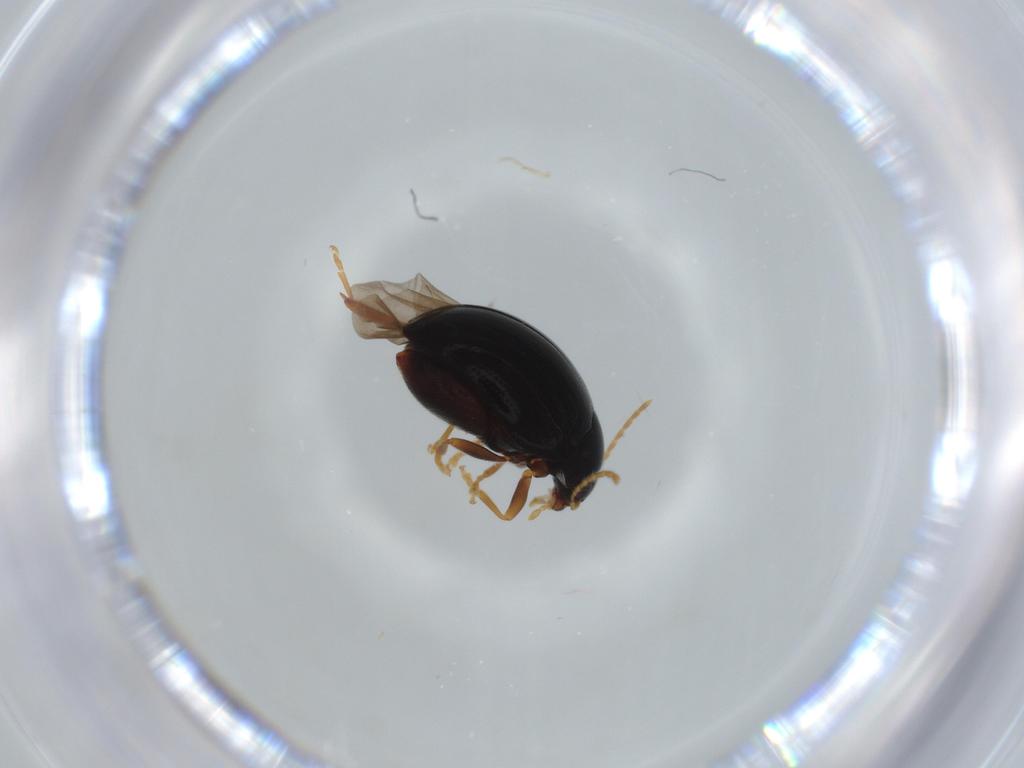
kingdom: Animalia
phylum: Arthropoda
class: Insecta
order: Coleoptera
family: Chrysomelidae
